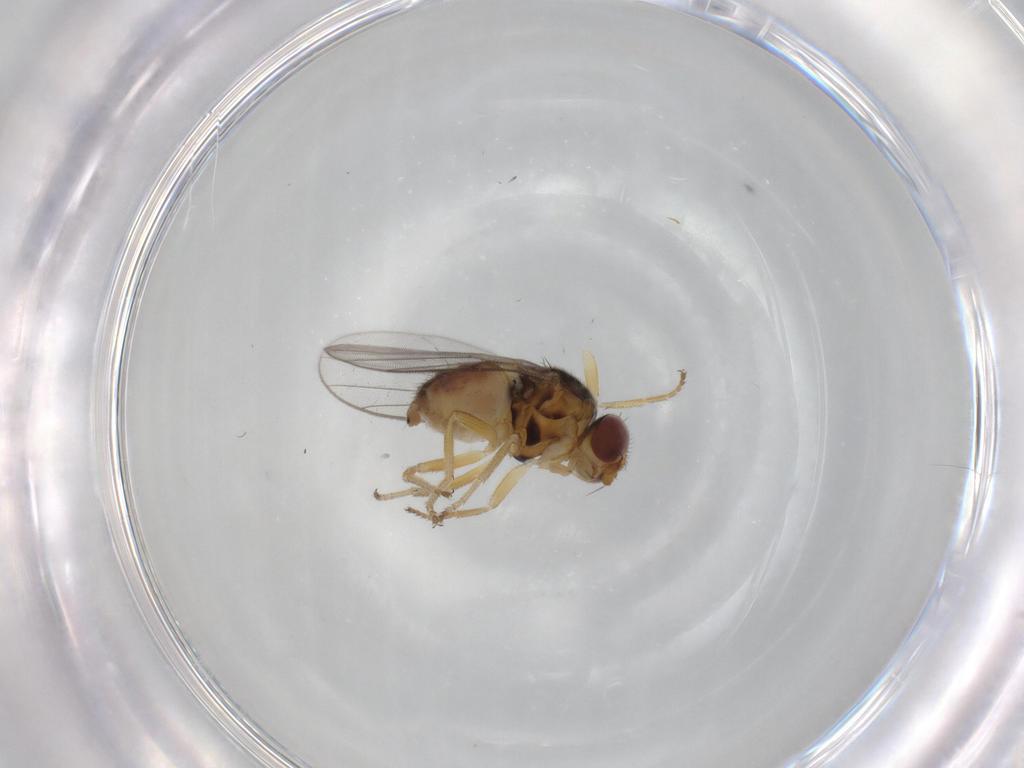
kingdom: Animalia
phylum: Arthropoda
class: Insecta
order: Diptera
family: Chloropidae
